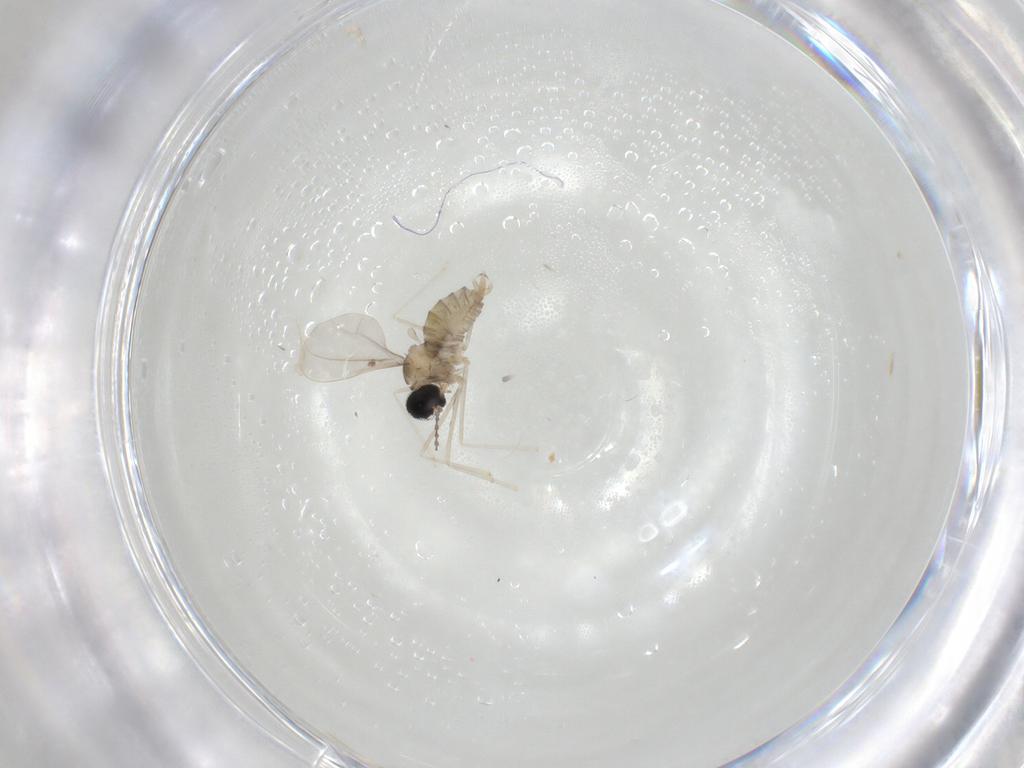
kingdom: Animalia
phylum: Arthropoda
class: Insecta
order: Diptera
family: Cecidomyiidae
